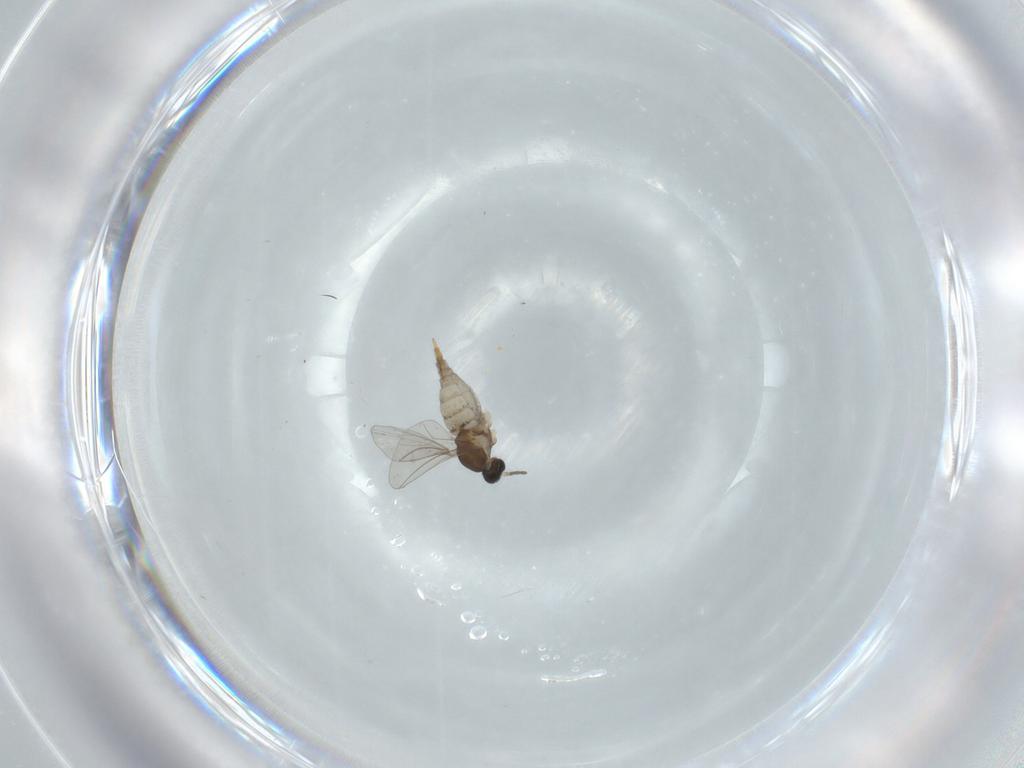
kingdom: Animalia
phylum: Arthropoda
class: Insecta
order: Diptera
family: Cecidomyiidae
